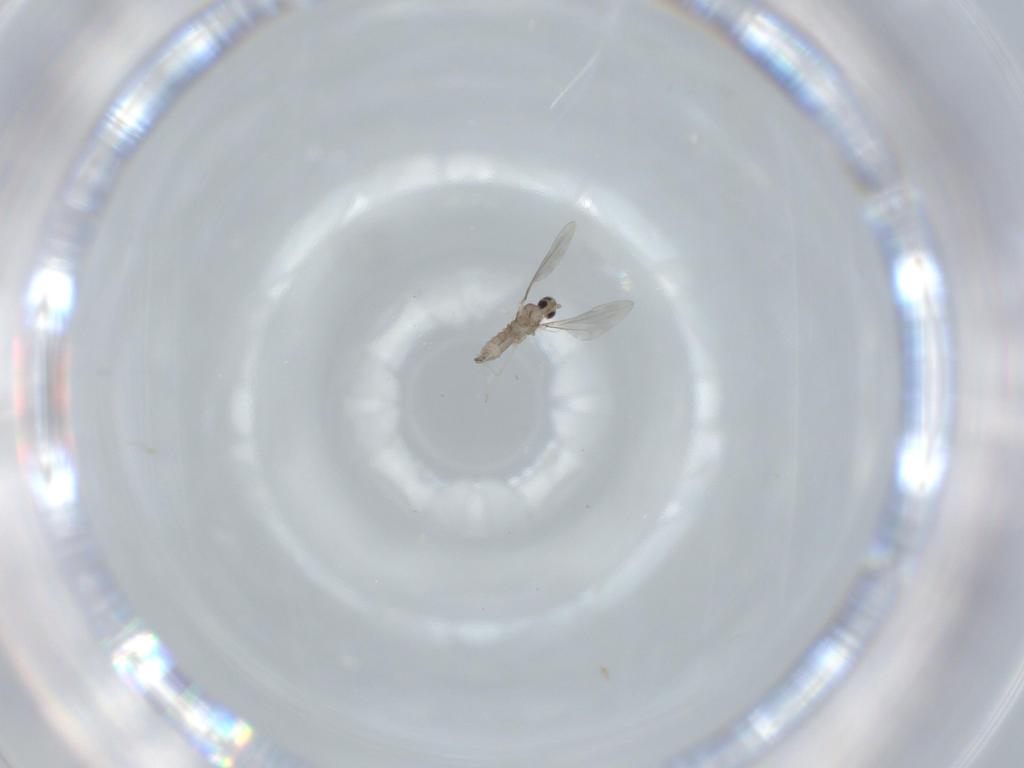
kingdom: Animalia
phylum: Arthropoda
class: Insecta
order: Diptera
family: Cecidomyiidae
